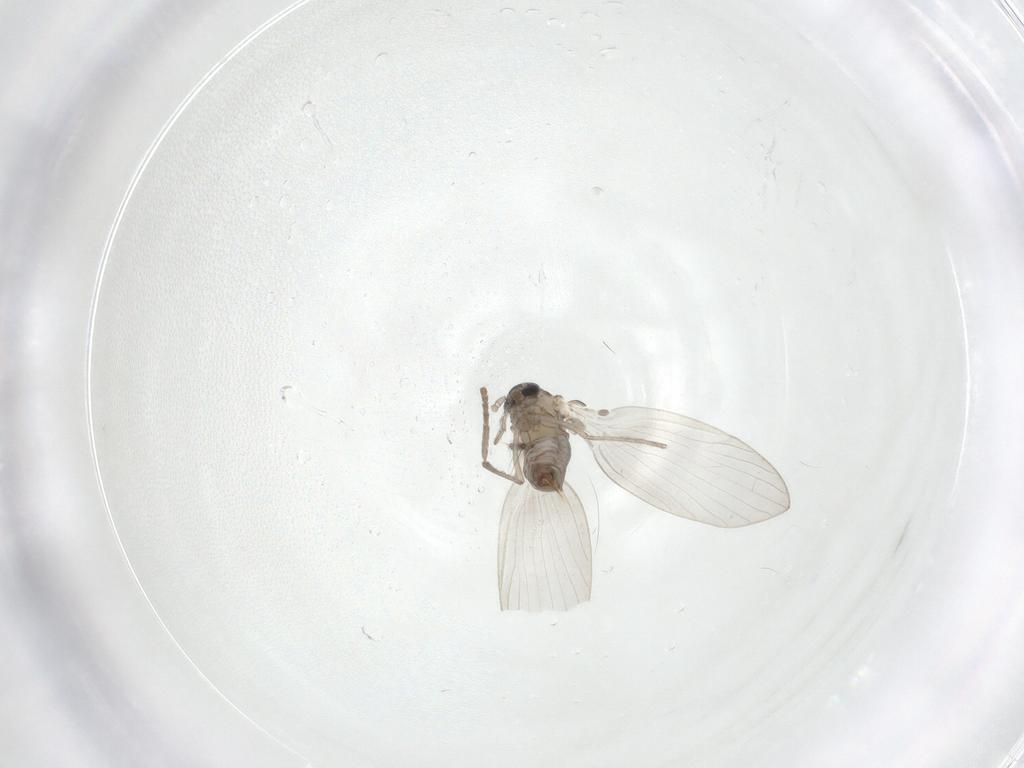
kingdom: Animalia
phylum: Arthropoda
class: Insecta
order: Diptera
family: Psychodidae
